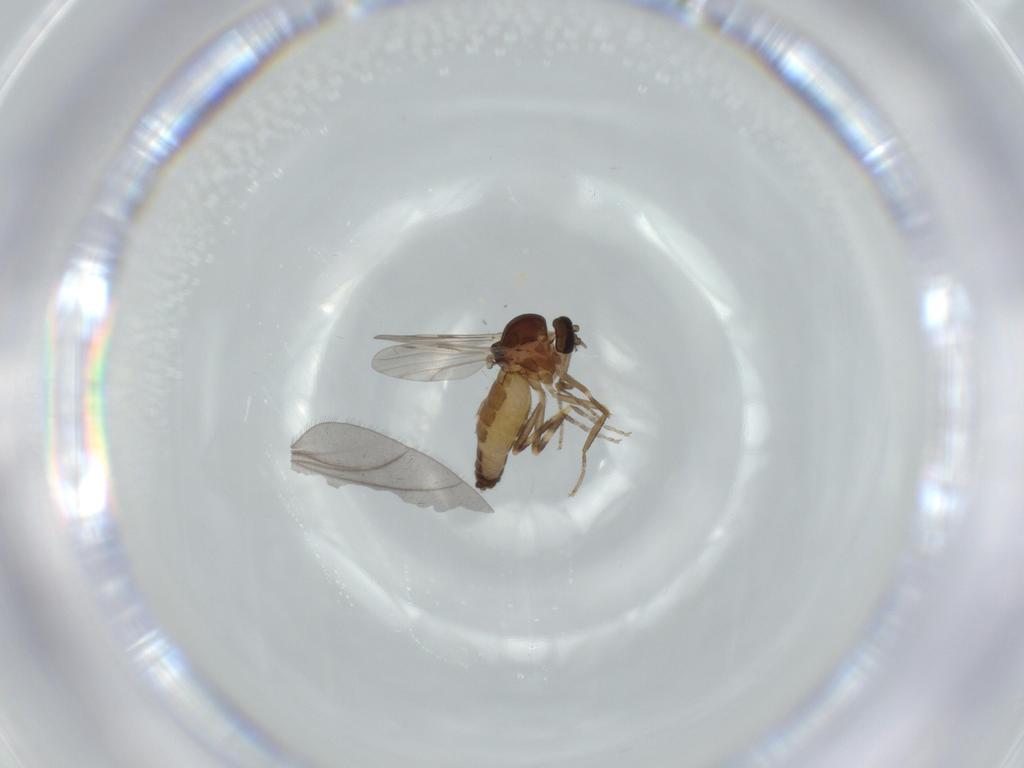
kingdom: Animalia
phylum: Arthropoda
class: Insecta
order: Diptera
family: Ceratopogonidae
